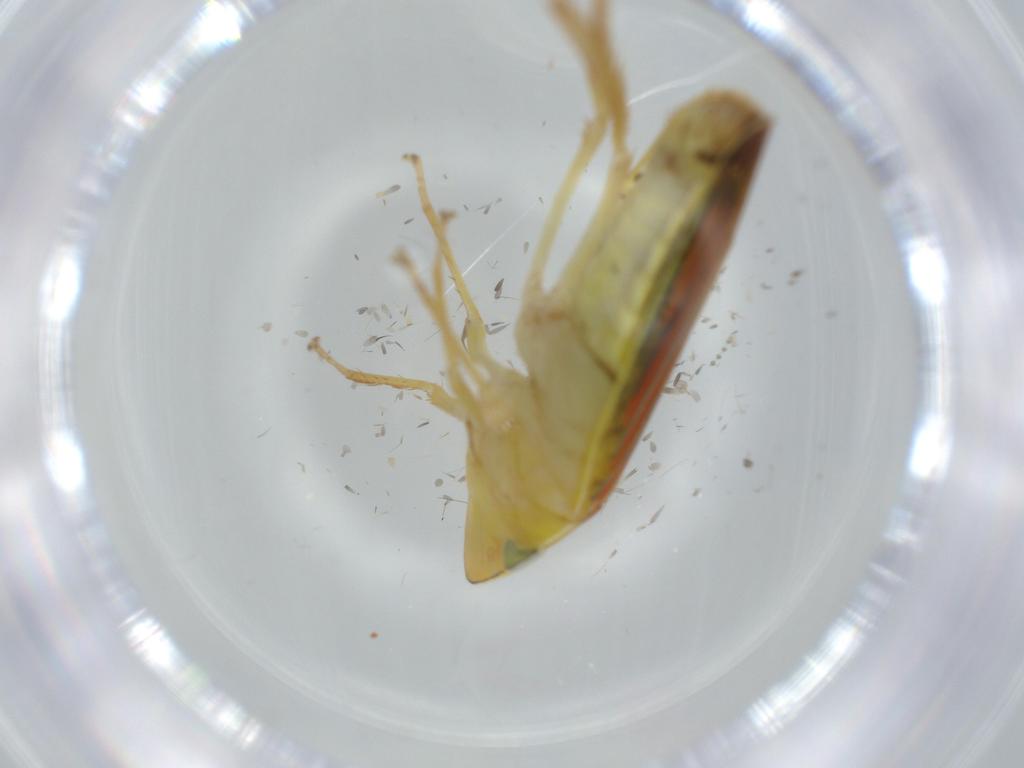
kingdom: Animalia
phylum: Arthropoda
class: Insecta
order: Hemiptera
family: Cicadellidae
